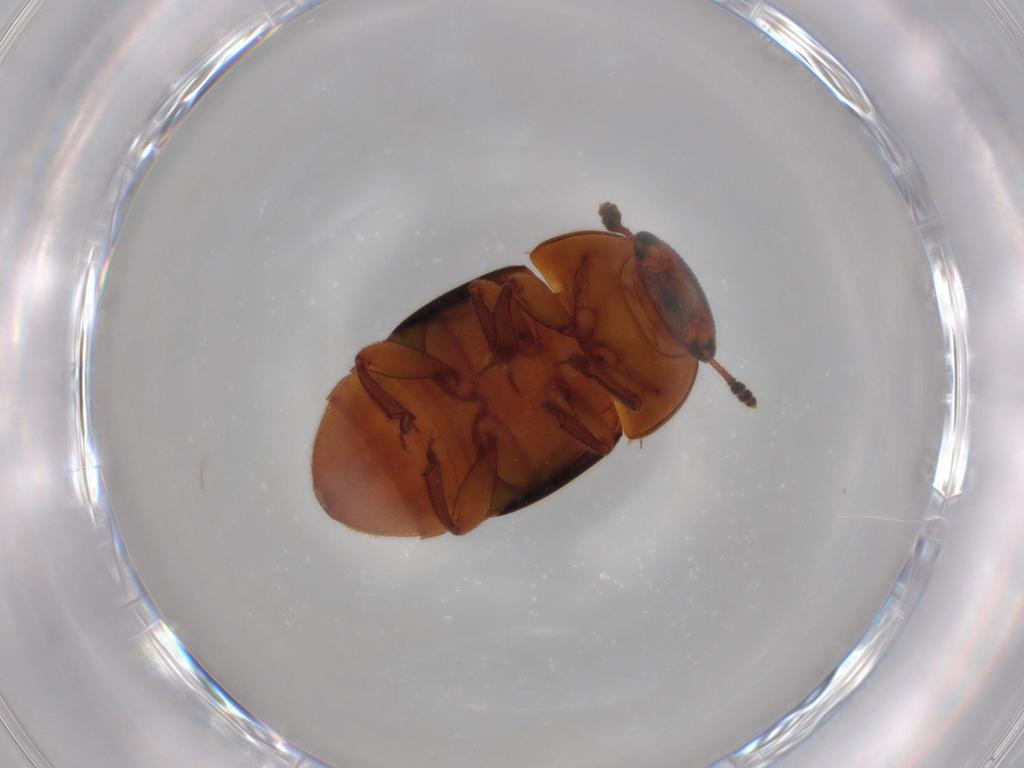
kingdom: Animalia
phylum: Arthropoda
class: Insecta
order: Coleoptera
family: Nitidulidae
